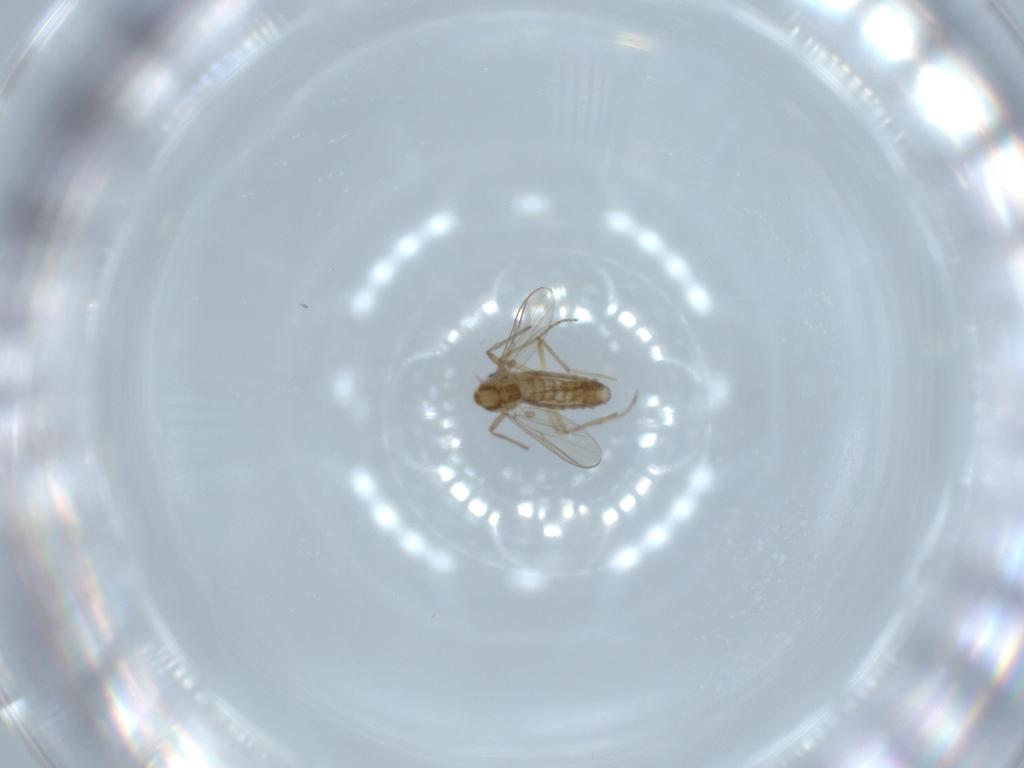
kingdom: Animalia
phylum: Arthropoda
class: Insecta
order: Diptera
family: Chironomidae
